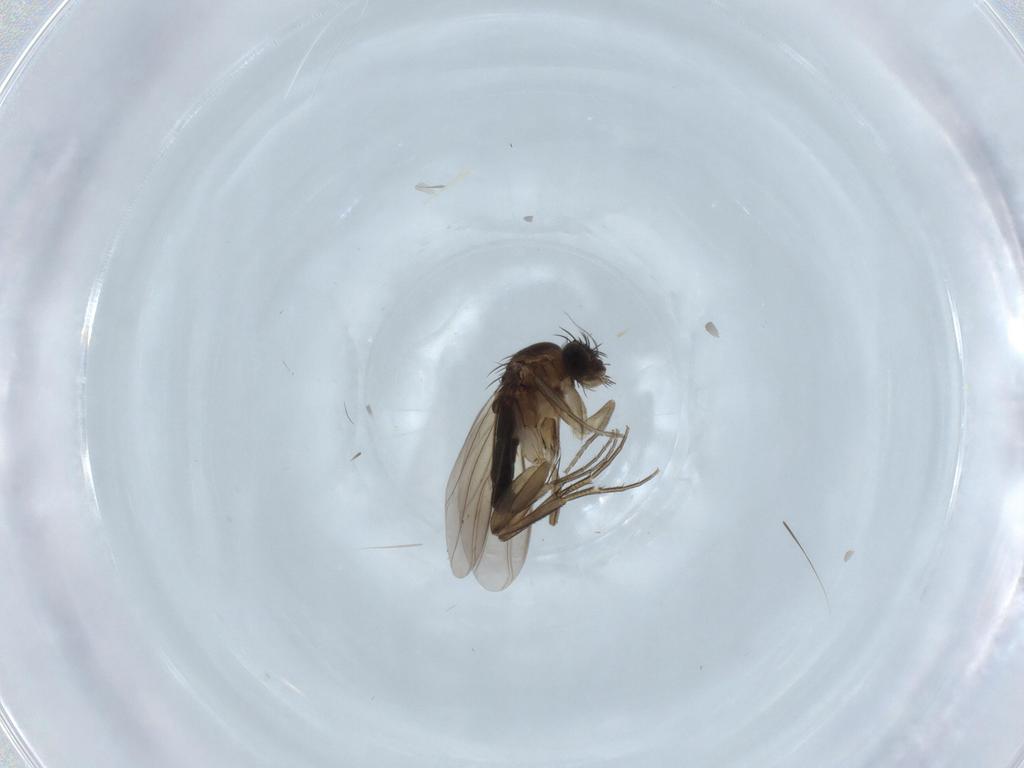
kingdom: Animalia
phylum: Arthropoda
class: Insecta
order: Diptera
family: Phoridae
